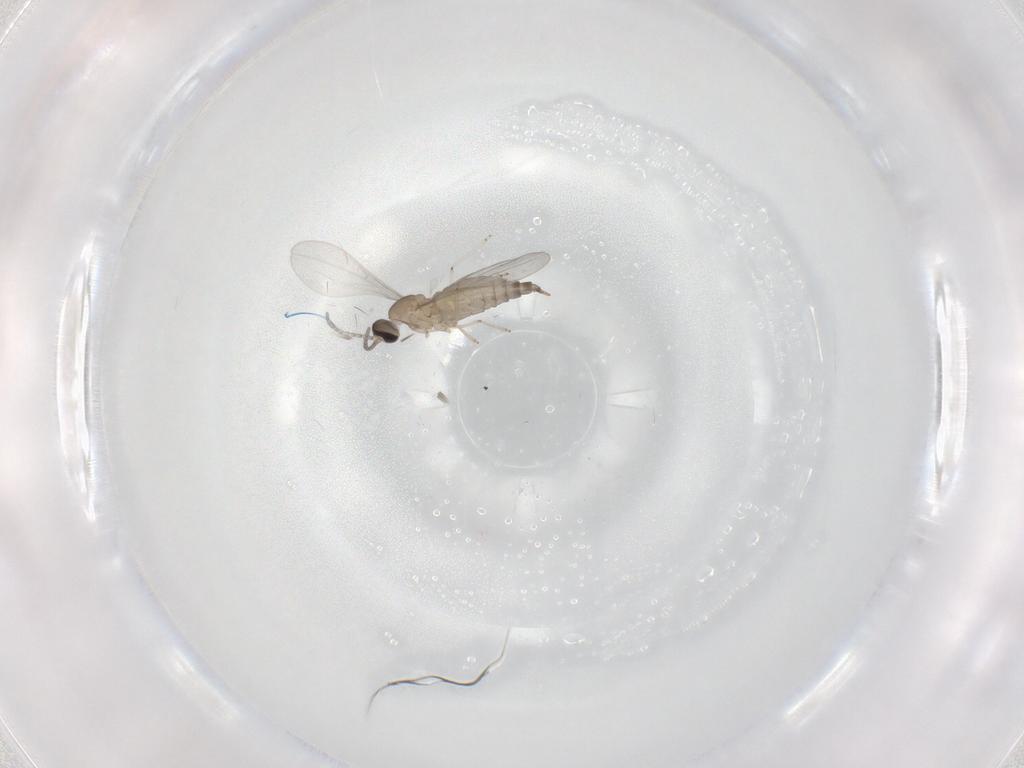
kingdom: Animalia
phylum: Arthropoda
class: Insecta
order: Diptera
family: Cecidomyiidae
